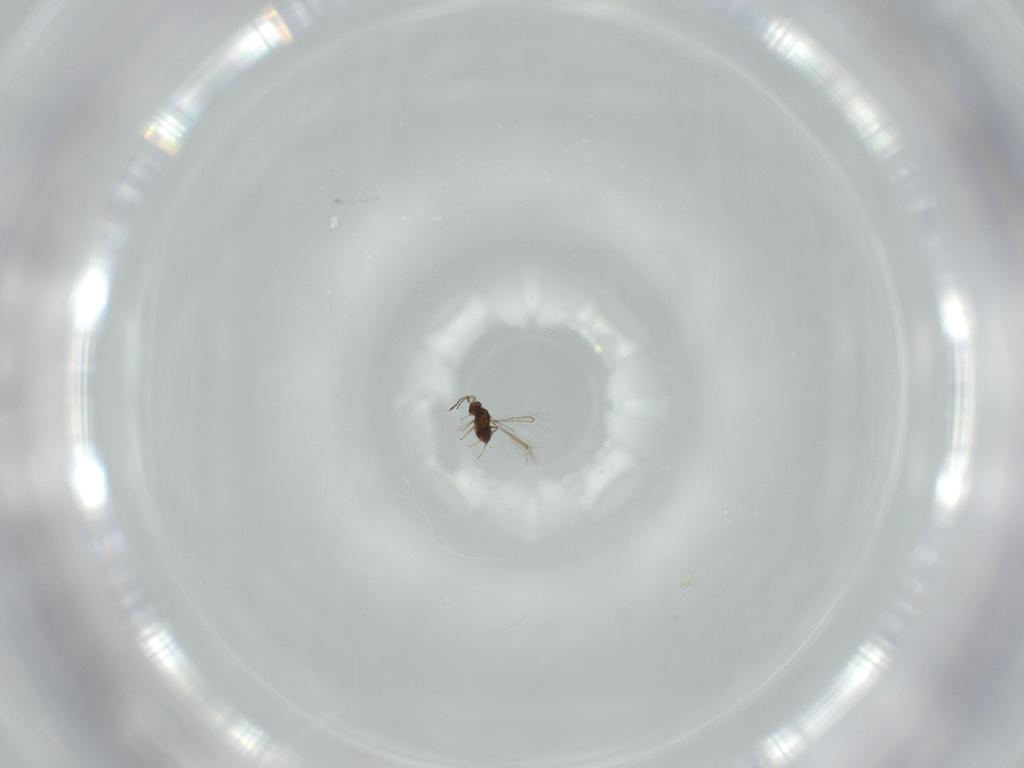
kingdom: Animalia
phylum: Arthropoda
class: Insecta
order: Hymenoptera
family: Mymaridae
